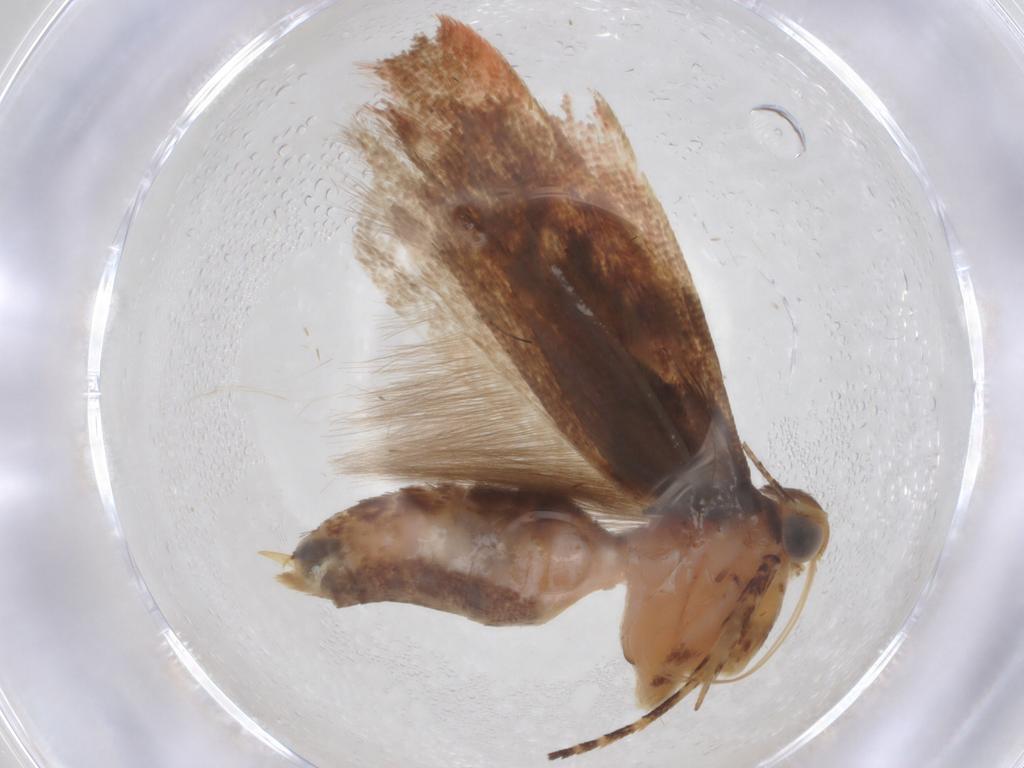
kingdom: Animalia
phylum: Arthropoda
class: Insecta
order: Lepidoptera
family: Gelechiidae
